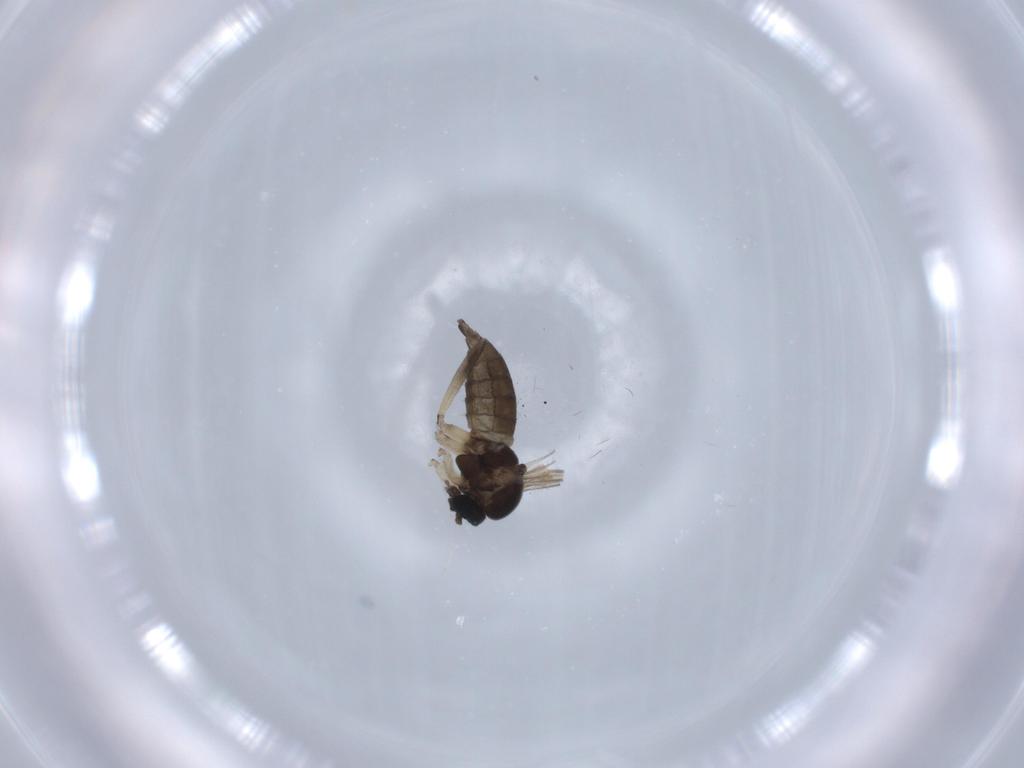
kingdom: Animalia
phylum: Arthropoda
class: Insecta
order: Diptera
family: Sciaridae
